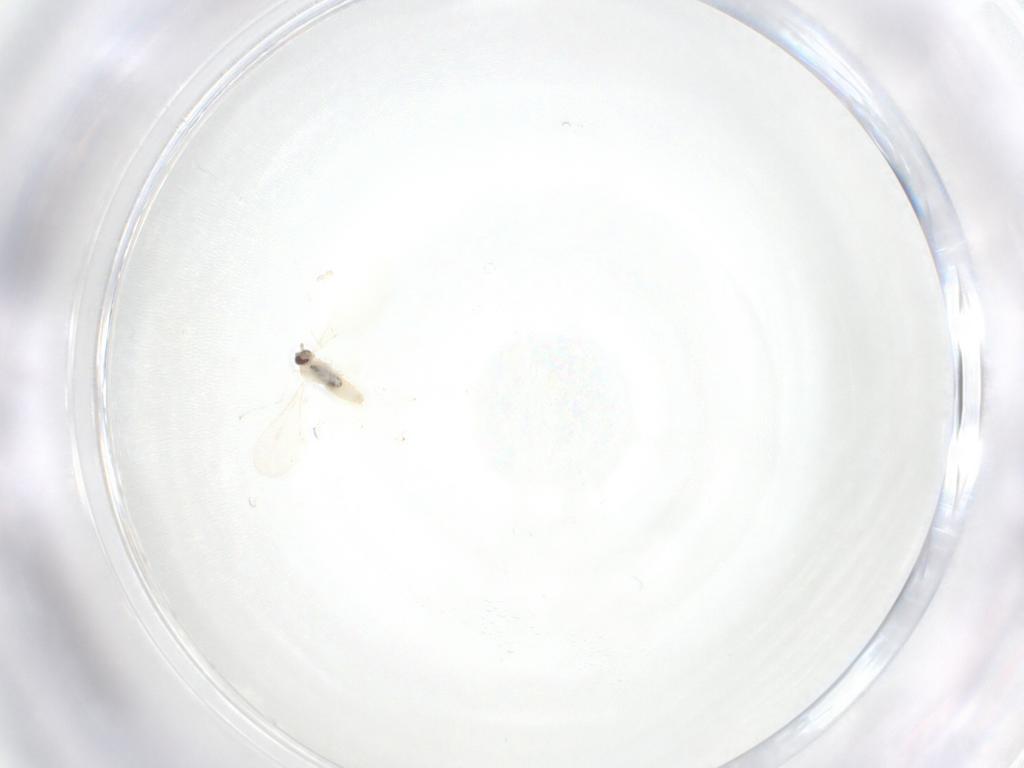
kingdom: Animalia
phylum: Arthropoda
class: Insecta
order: Diptera
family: Cecidomyiidae
